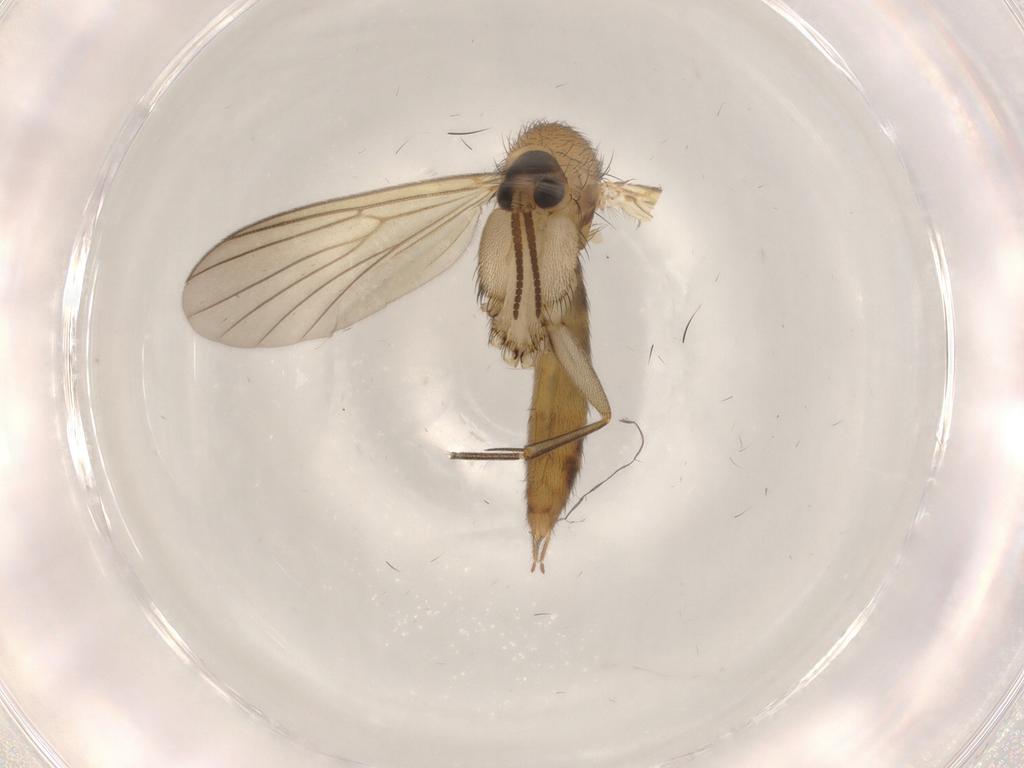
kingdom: Animalia
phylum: Arthropoda
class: Insecta
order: Diptera
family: Mycetophilidae
